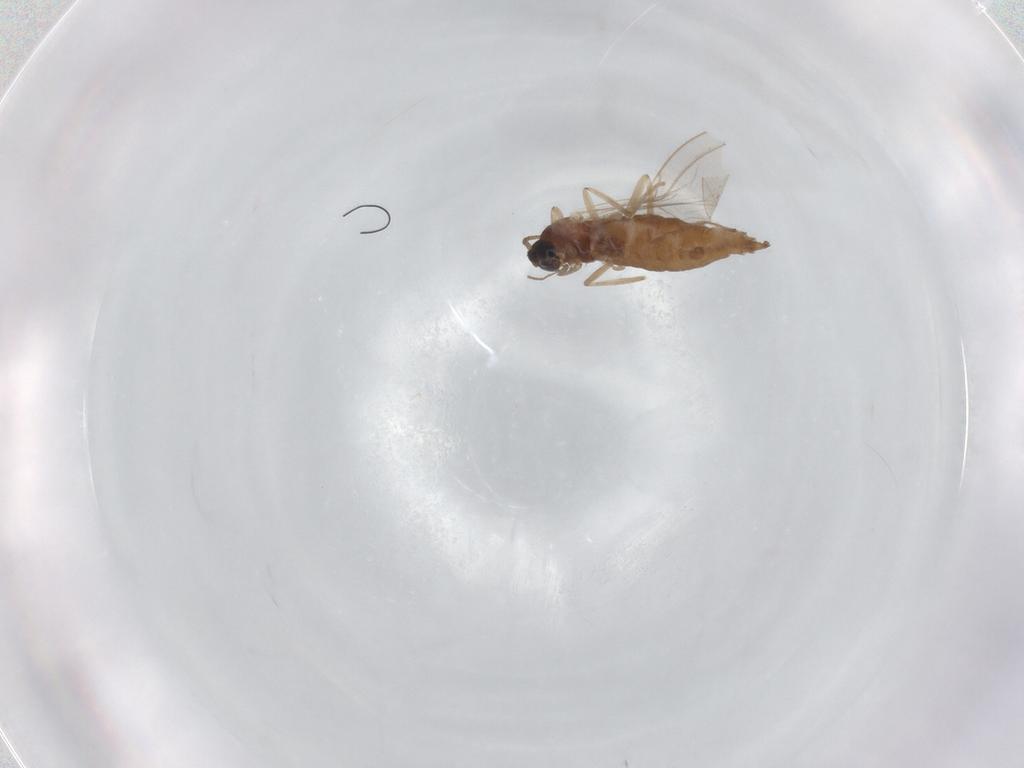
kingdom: Animalia
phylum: Arthropoda
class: Insecta
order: Diptera
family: Cecidomyiidae
